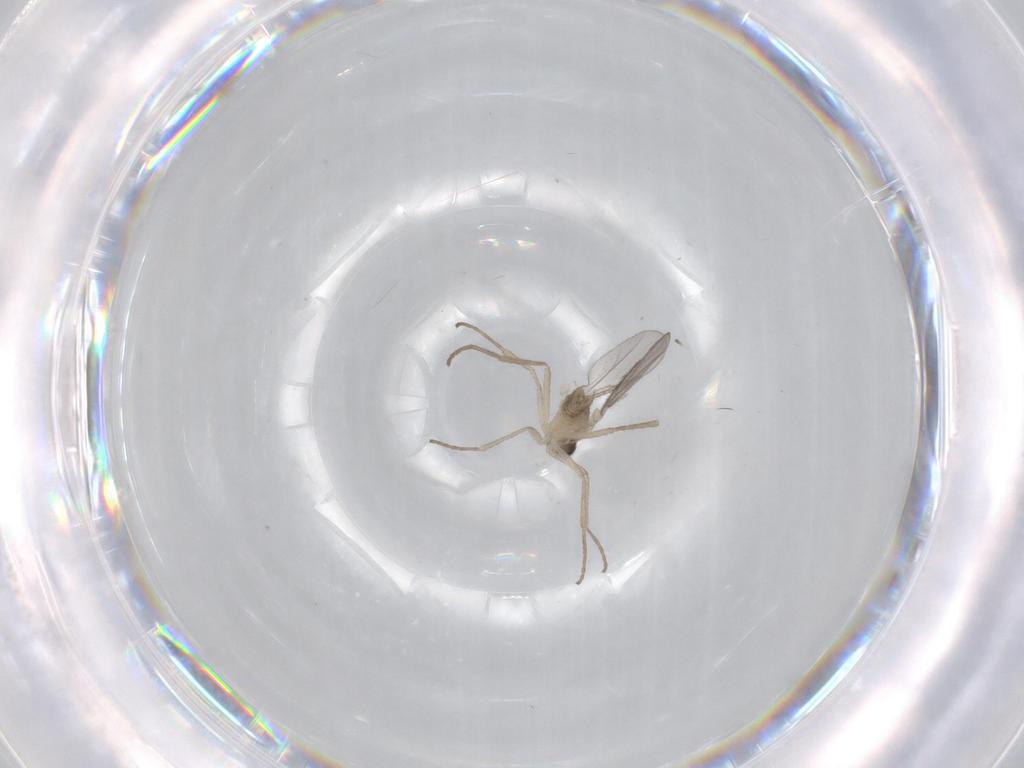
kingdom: Animalia
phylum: Arthropoda
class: Insecta
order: Diptera
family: Cecidomyiidae
